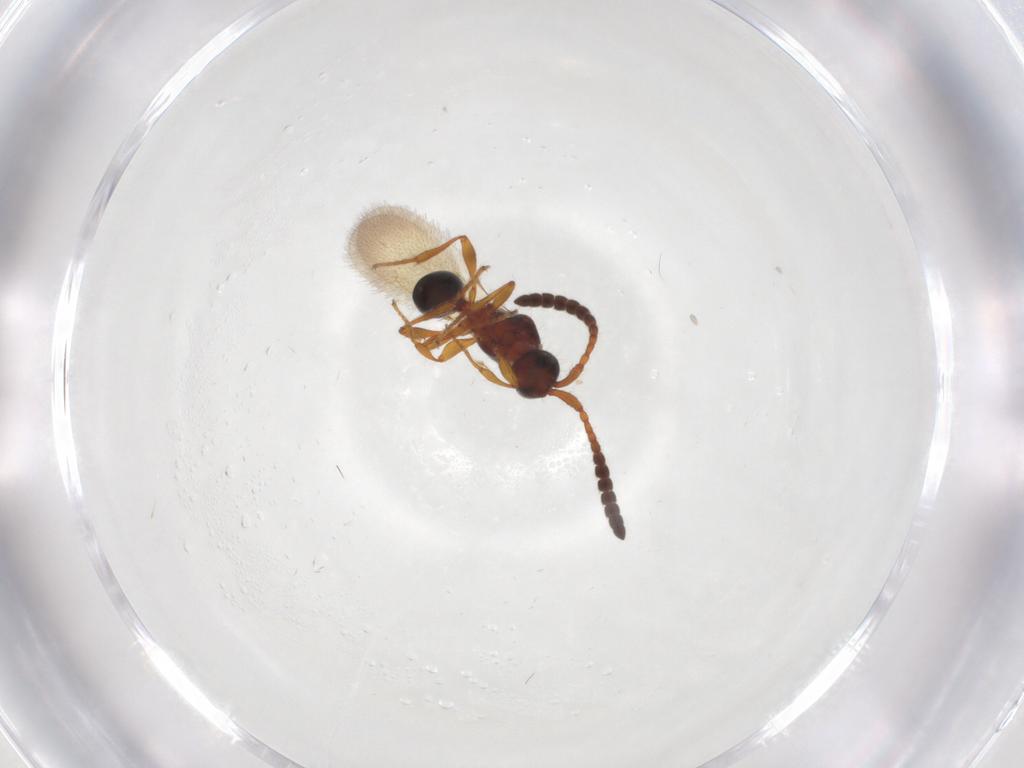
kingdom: Animalia
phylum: Arthropoda
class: Insecta
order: Hymenoptera
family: Diapriidae
